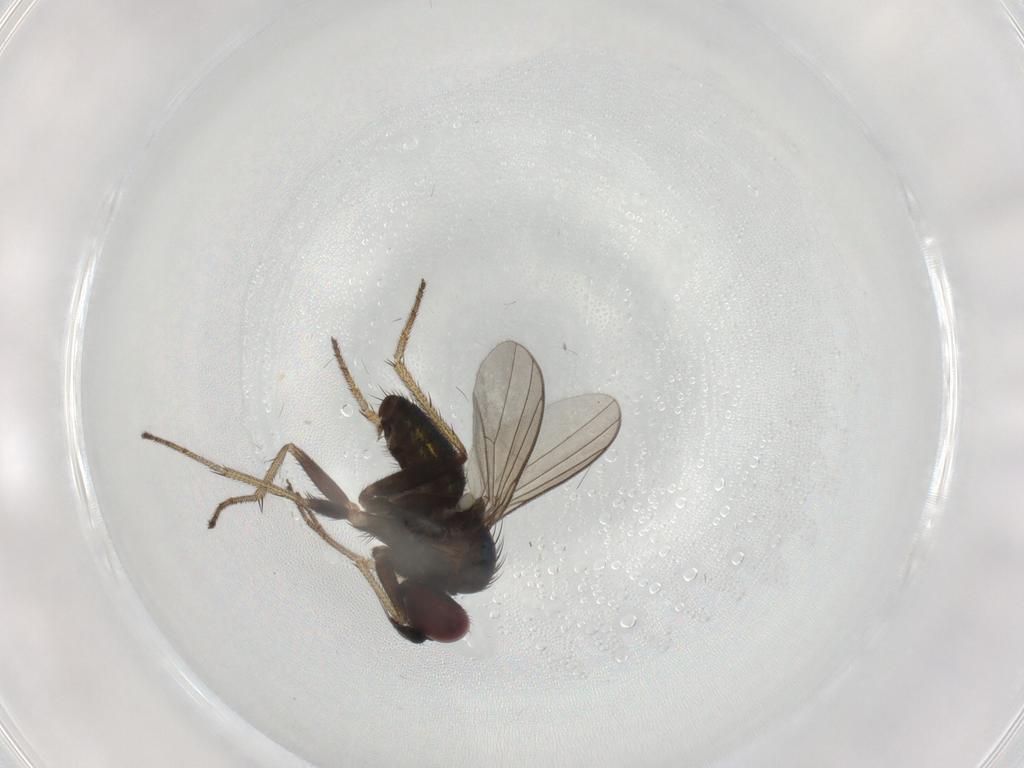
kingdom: Animalia
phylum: Arthropoda
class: Insecta
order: Diptera
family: Dolichopodidae
